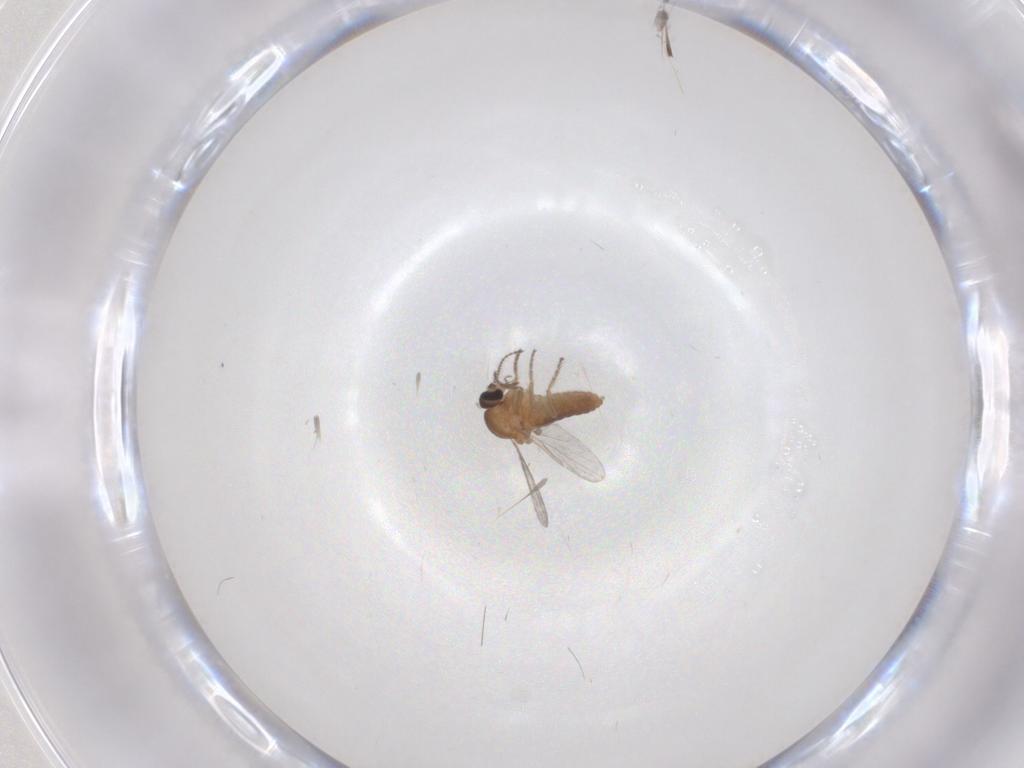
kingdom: Animalia
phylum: Arthropoda
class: Insecta
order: Diptera
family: Ceratopogonidae
